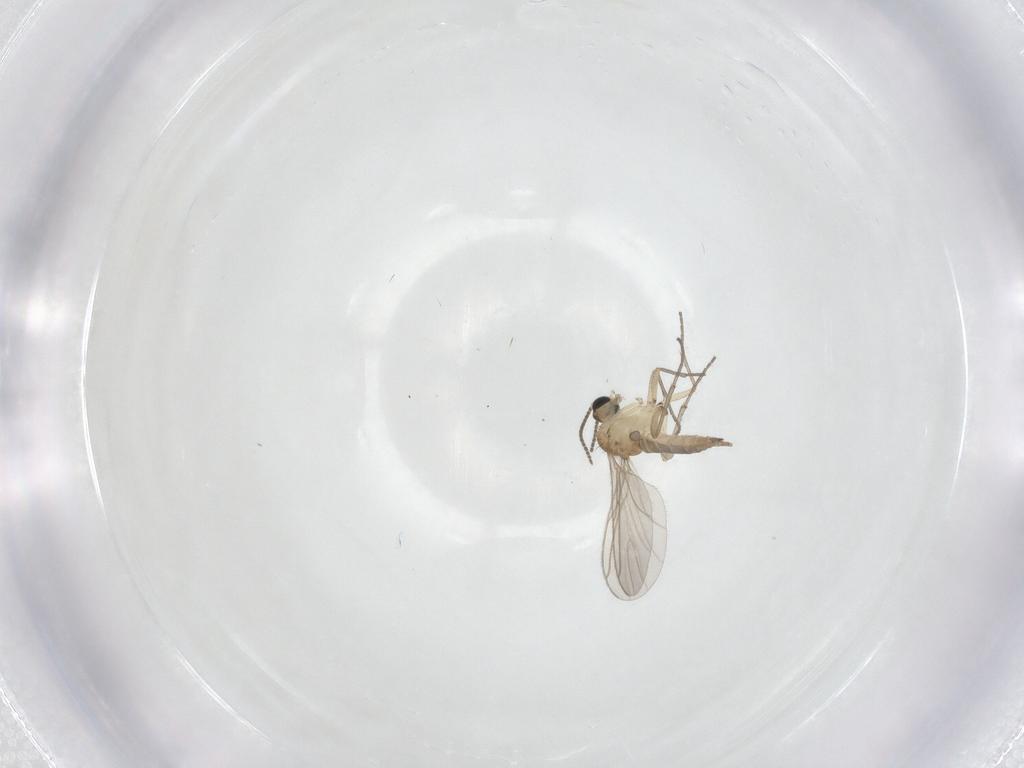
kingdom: Animalia
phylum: Arthropoda
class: Insecta
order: Diptera
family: Sciaridae
